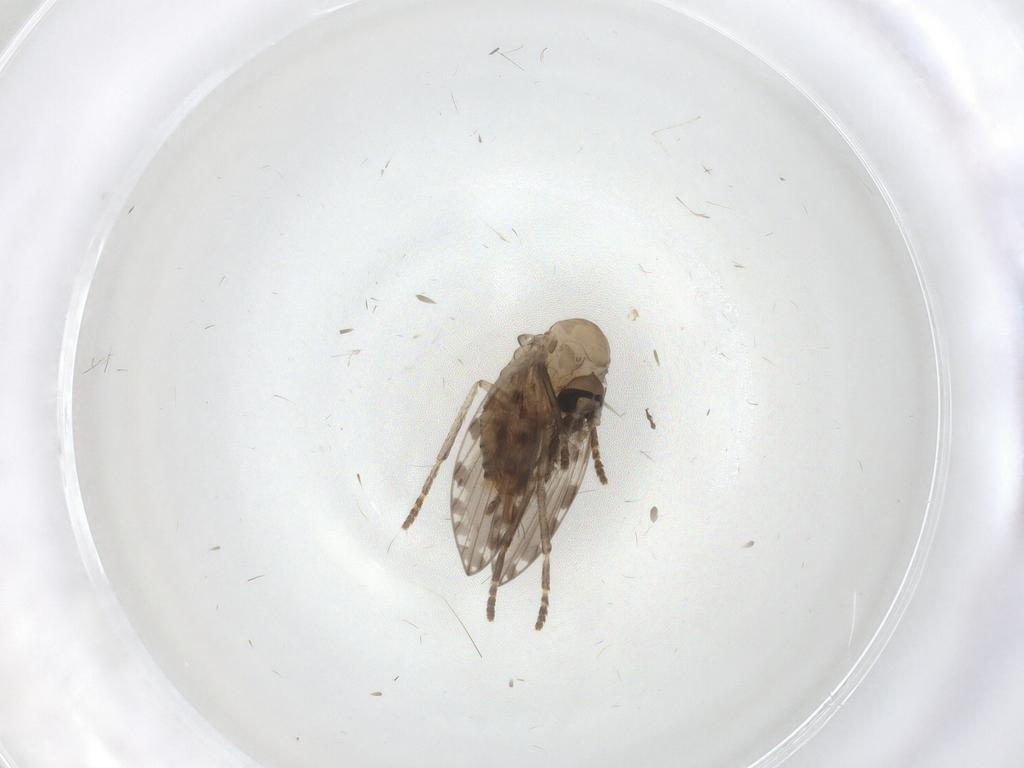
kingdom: Animalia
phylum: Arthropoda
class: Insecta
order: Diptera
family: Psychodidae
